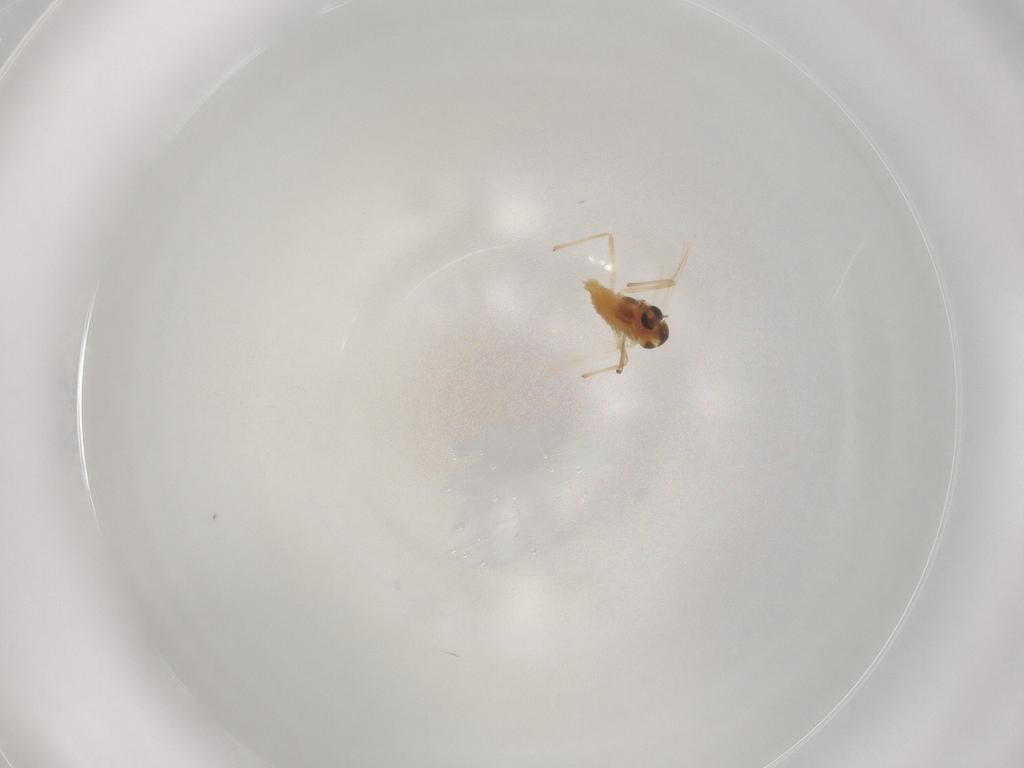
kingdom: Animalia
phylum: Arthropoda
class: Insecta
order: Diptera
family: Chironomidae
